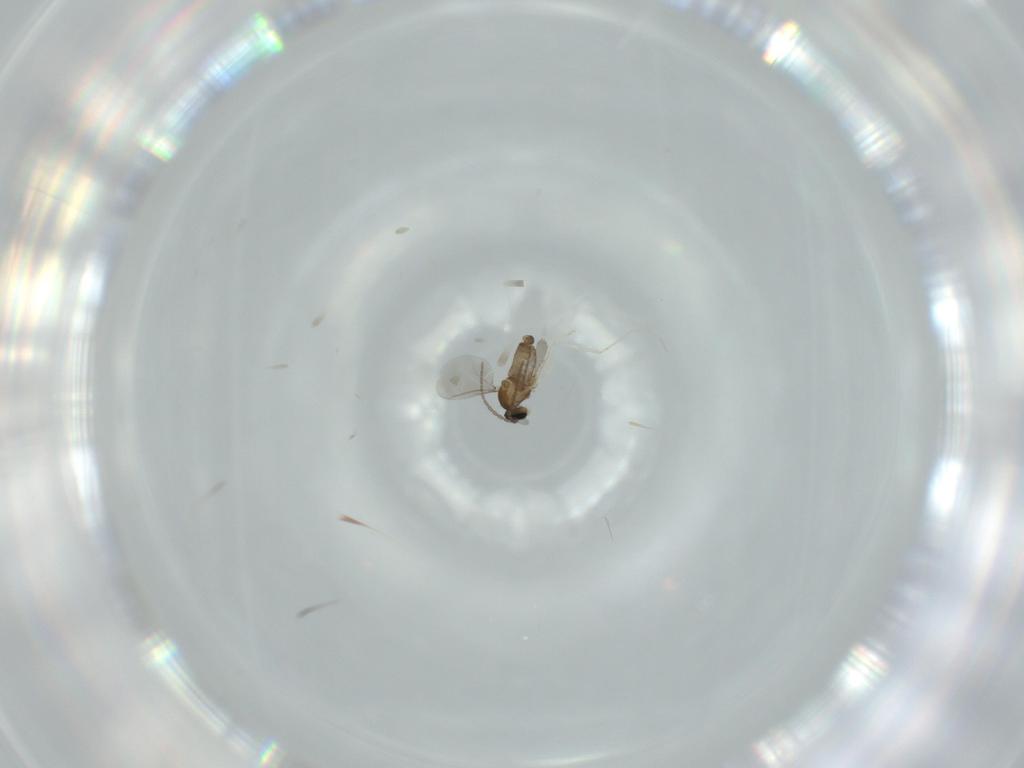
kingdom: Animalia
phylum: Arthropoda
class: Insecta
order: Diptera
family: Cecidomyiidae
